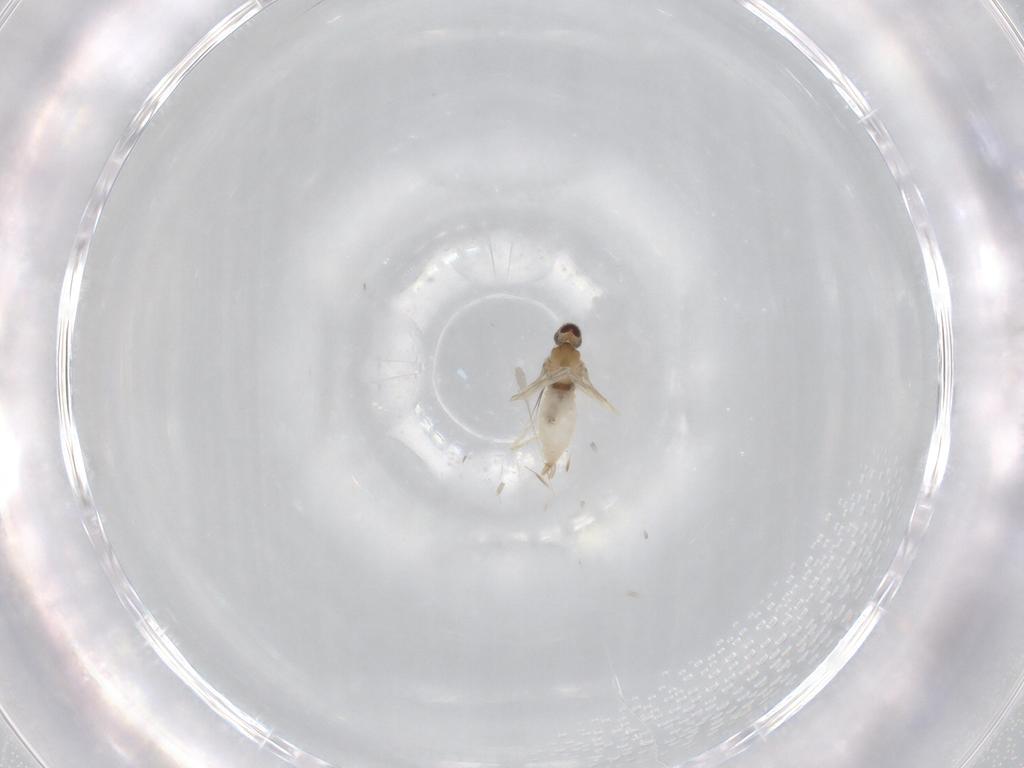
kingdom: Animalia
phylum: Arthropoda
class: Insecta
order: Diptera
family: Cecidomyiidae
